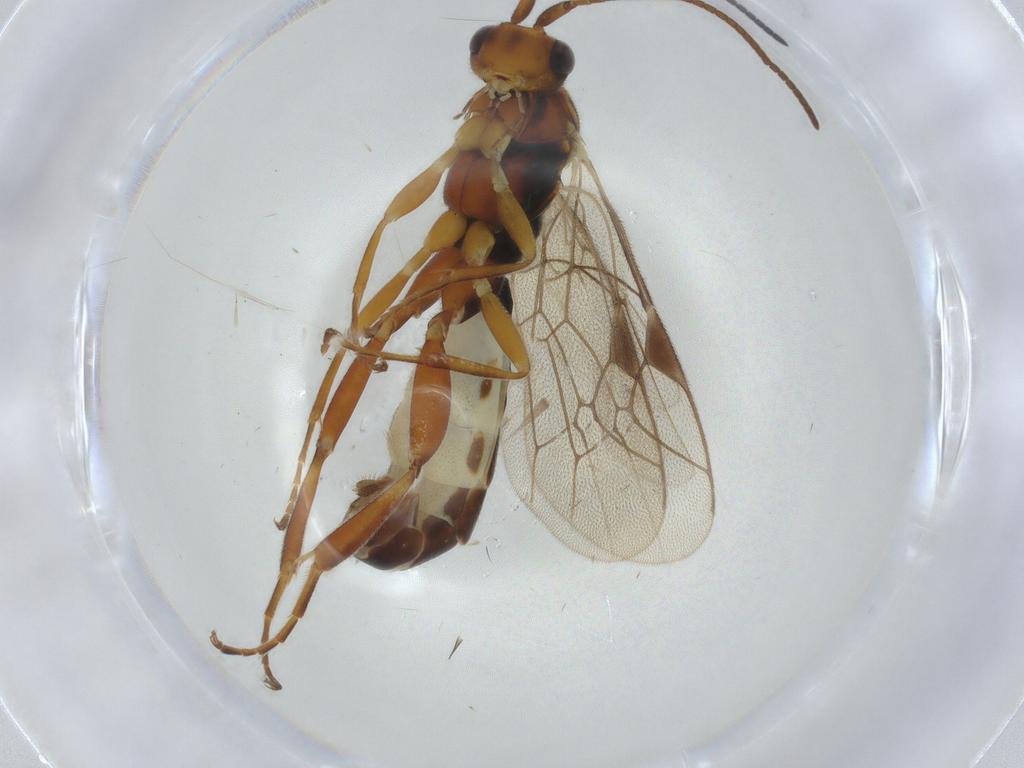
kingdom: Animalia
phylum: Arthropoda
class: Insecta
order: Hymenoptera
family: Ichneumonidae
